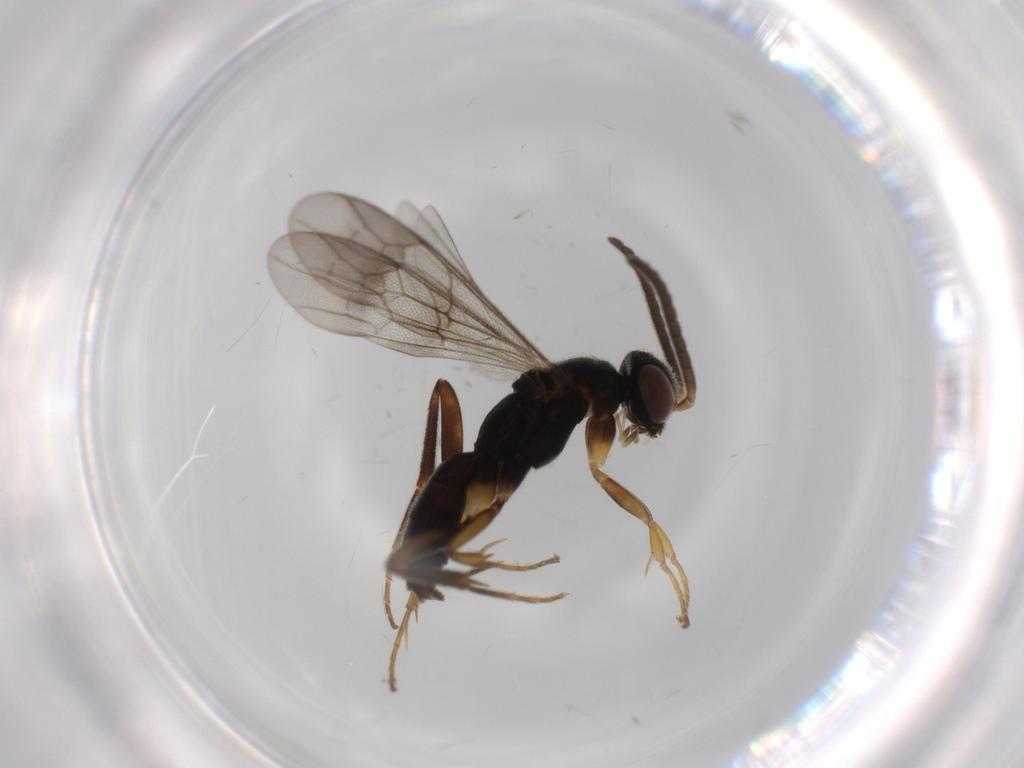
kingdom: Animalia
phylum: Arthropoda
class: Insecta
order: Hymenoptera
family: Pompilidae
